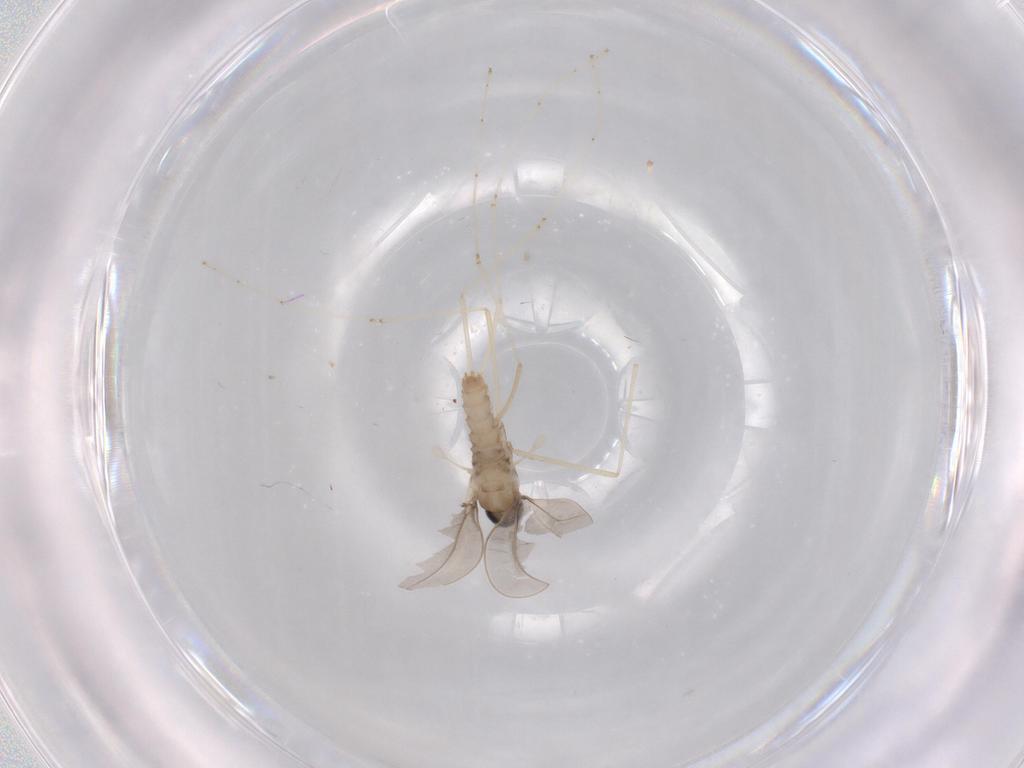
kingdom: Animalia
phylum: Arthropoda
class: Insecta
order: Diptera
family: Cecidomyiidae
